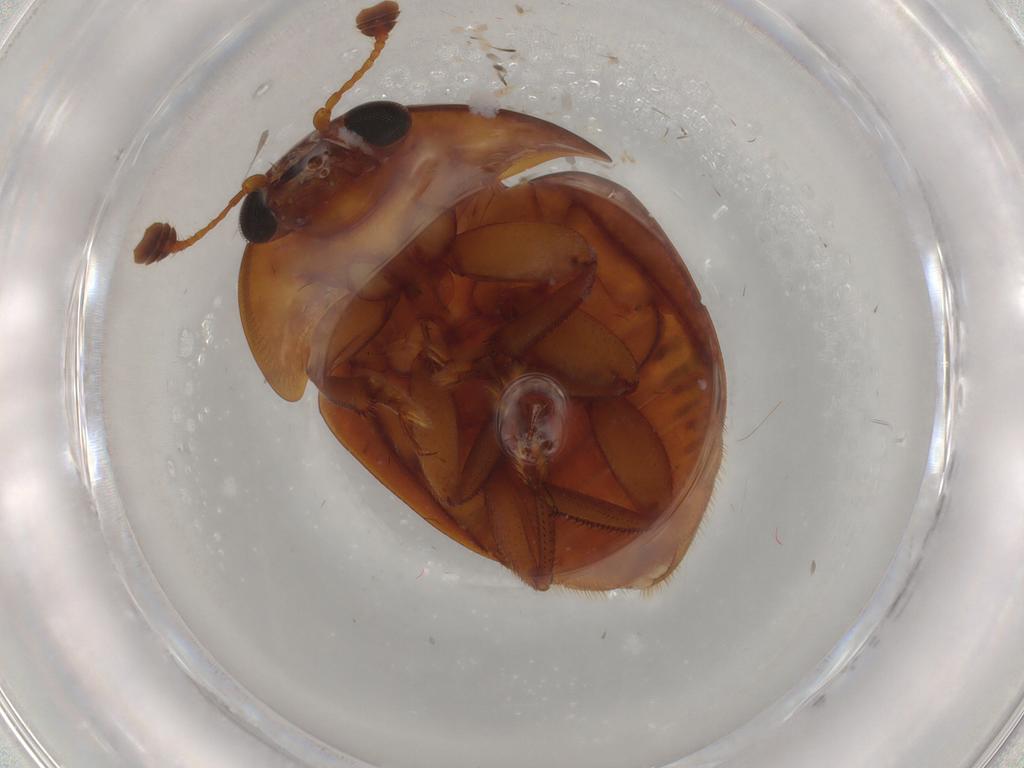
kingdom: Animalia
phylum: Arthropoda
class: Insecta
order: Coleoptera
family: Nitidulidae
